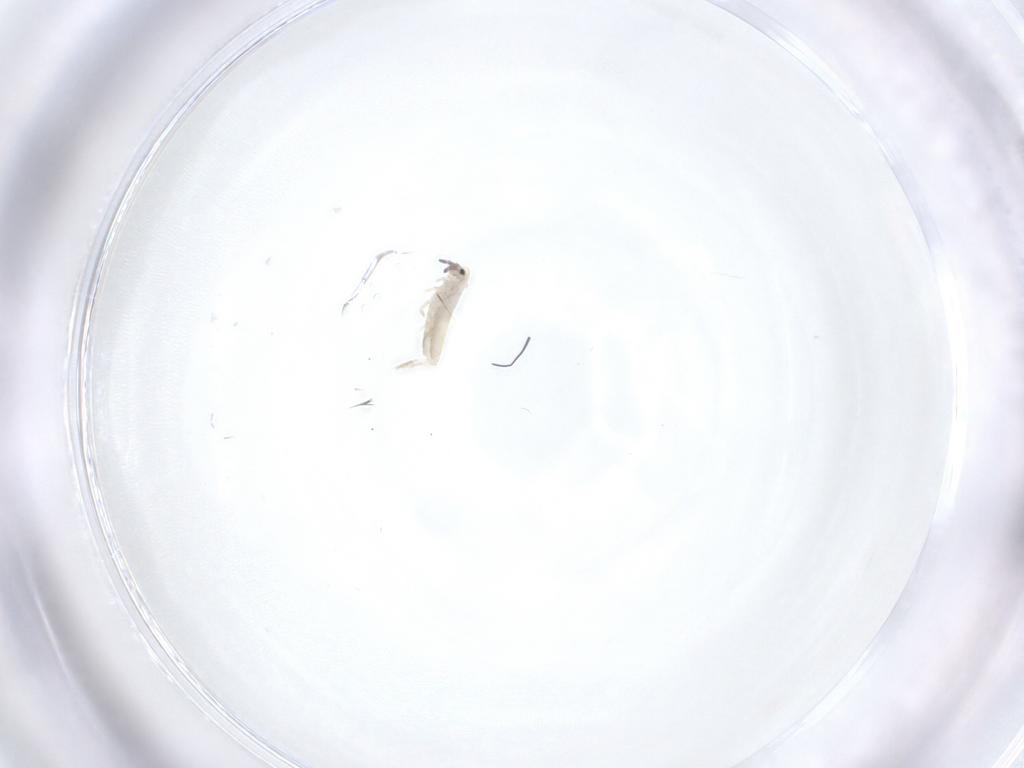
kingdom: Animalia
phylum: Arthropoda
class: Collembola
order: Entomobryomorpha
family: Entomobryidae
